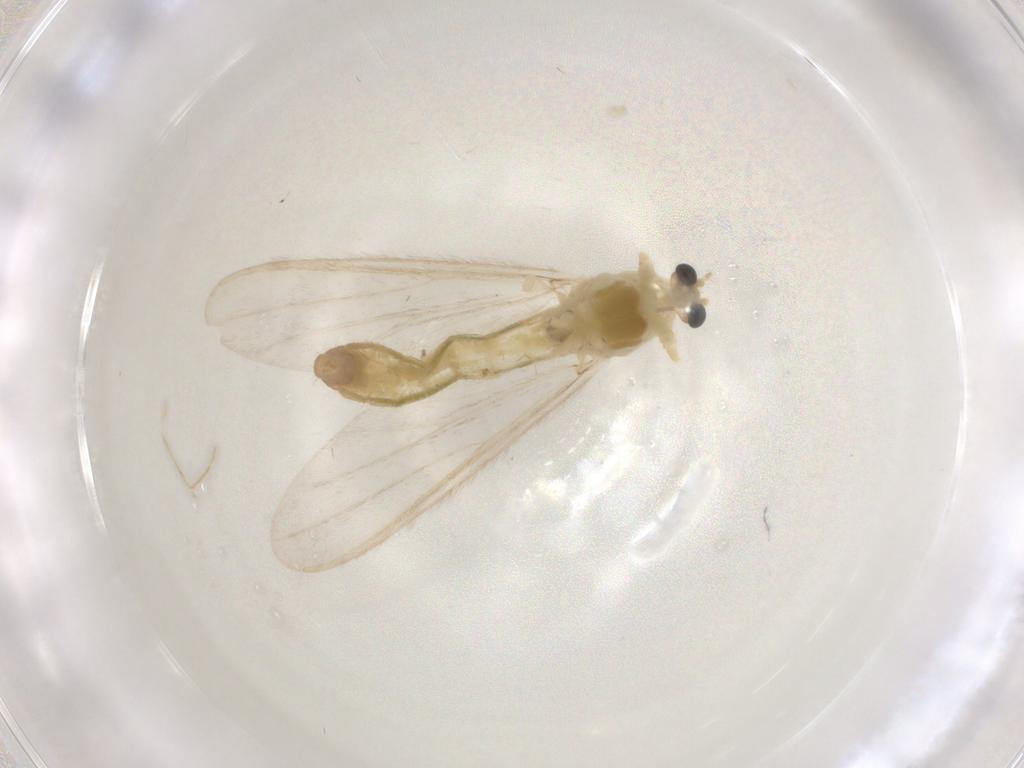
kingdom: Animalia
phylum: Arthropoda
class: Insecta
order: Diptera
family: Chironomidae
